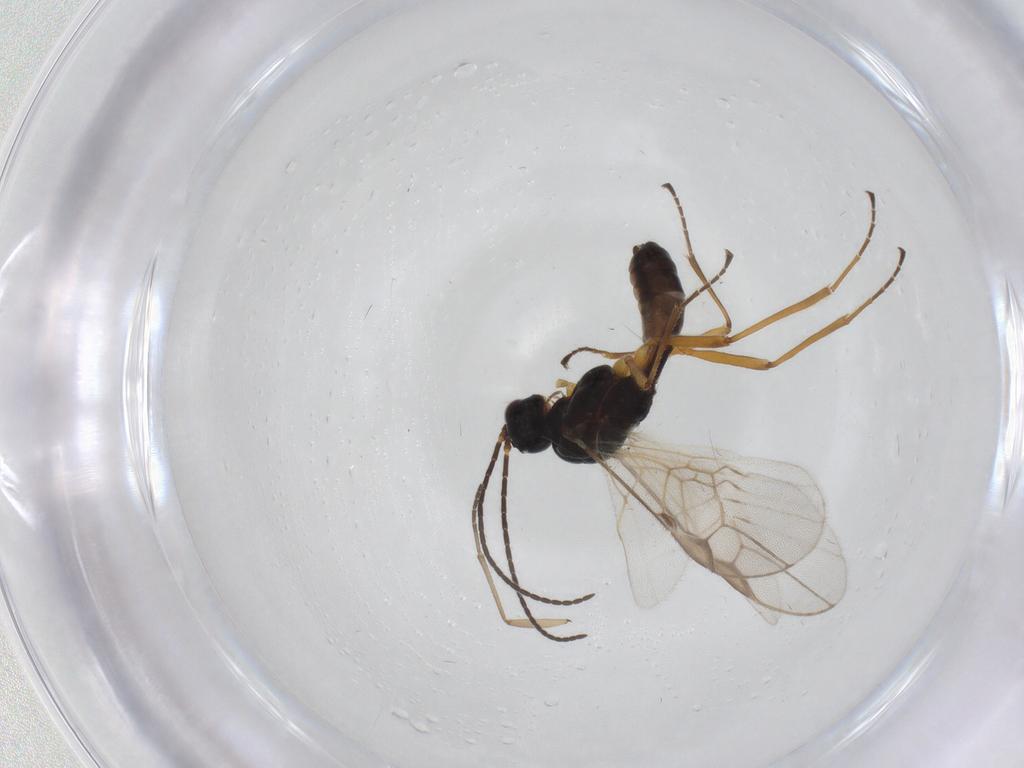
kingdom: Animalia
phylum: Arthropoda
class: Insecta
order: Hymenoptera
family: Braconidae
